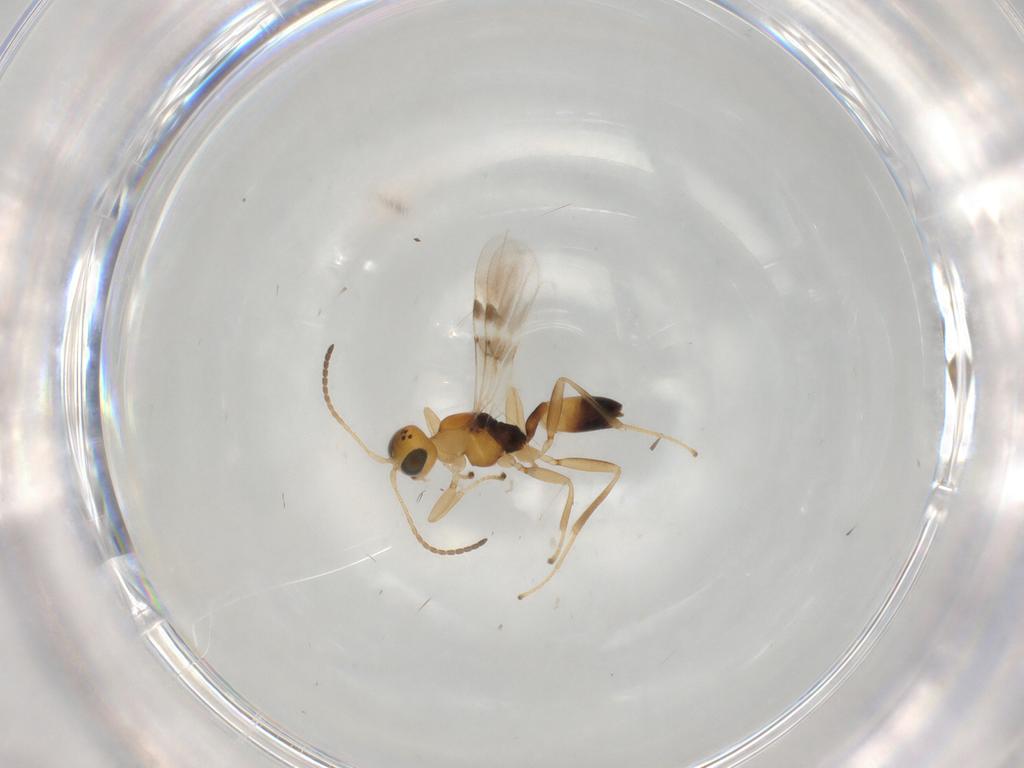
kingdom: Animalia
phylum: Arthropoda
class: Insecta
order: Hymenoptera
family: Braconidae
